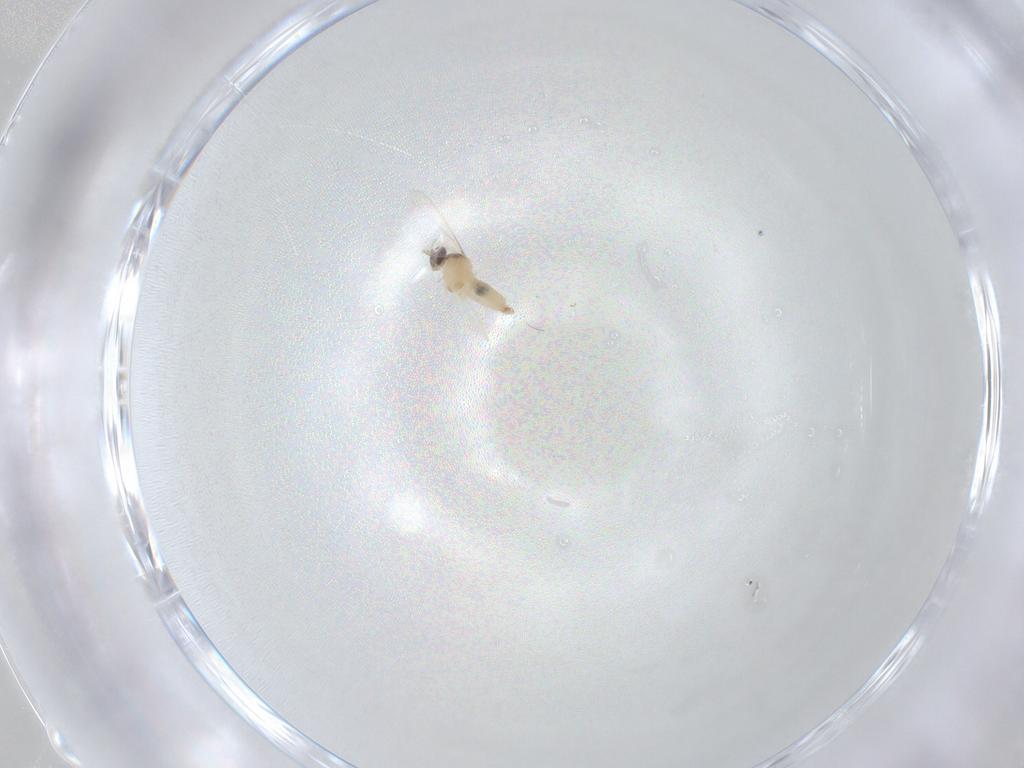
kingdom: Animalia
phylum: Arthropoda
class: Insecta
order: Diptera
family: Cecidomyiidae
